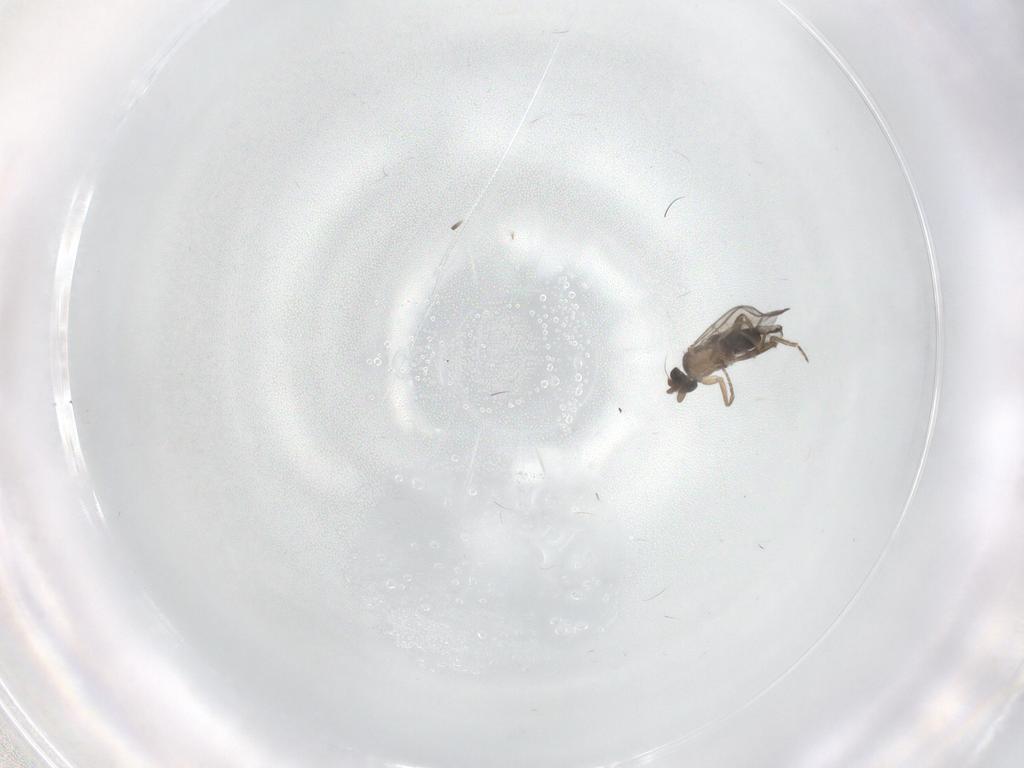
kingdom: Animalia
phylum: Arthropoda
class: Insecta
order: Diptera
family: Ceratopogonidae
